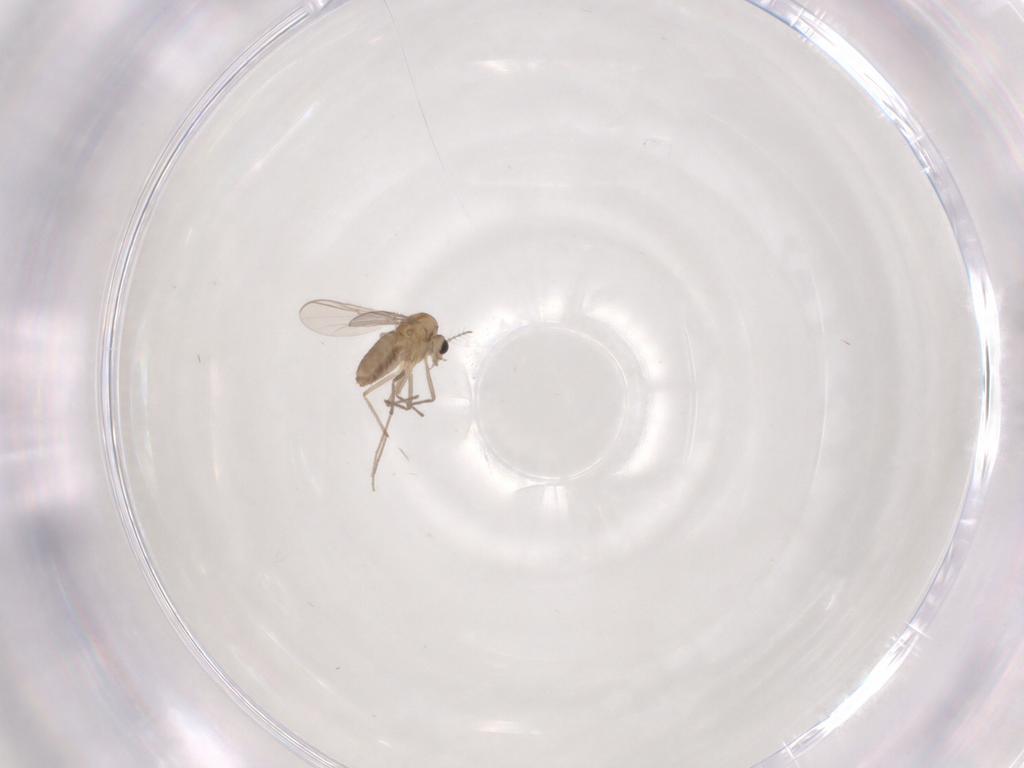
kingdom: Animalia
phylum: Arthropoda
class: Insecta
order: Diptera
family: Chironomidae
